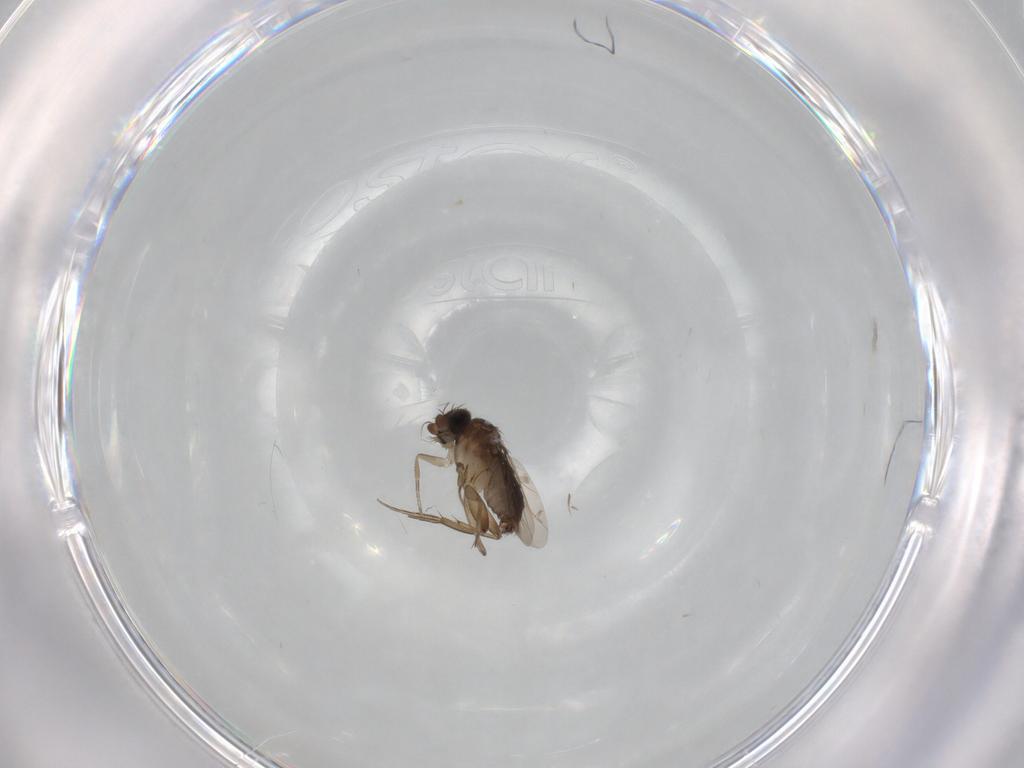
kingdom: Animalia
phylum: Arthropoda
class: Insecta
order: Diptera
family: Phoridae
